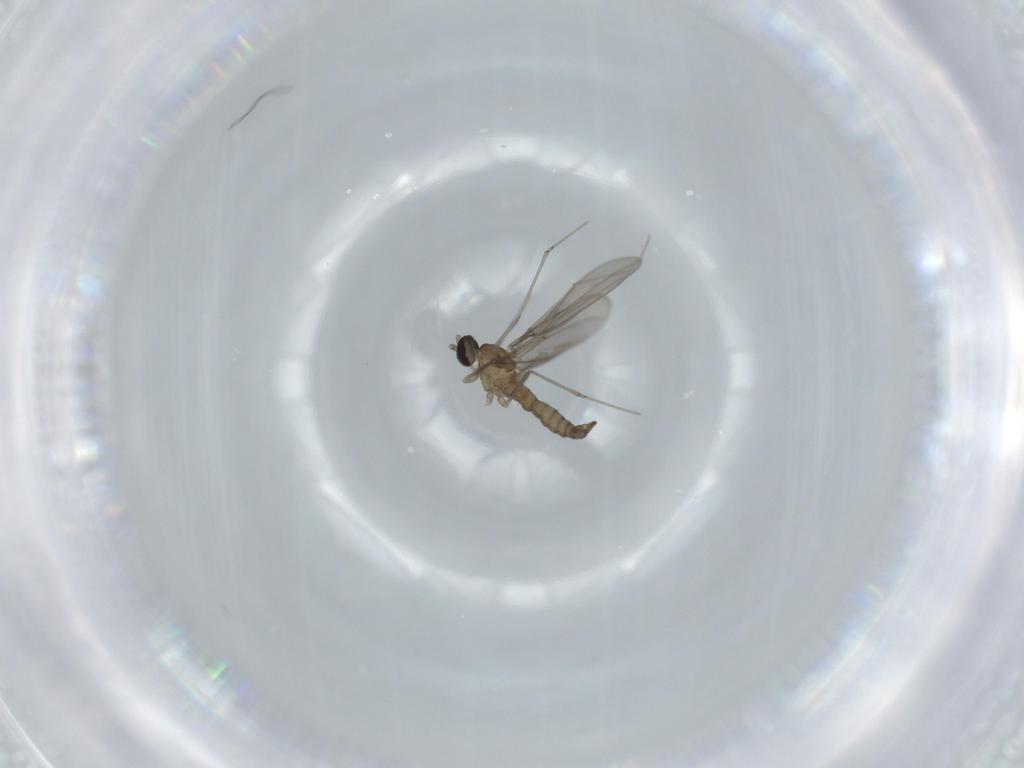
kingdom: Animalia
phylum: Arthropoda
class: Insecta
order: Diptera
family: Cecidomyiidae
